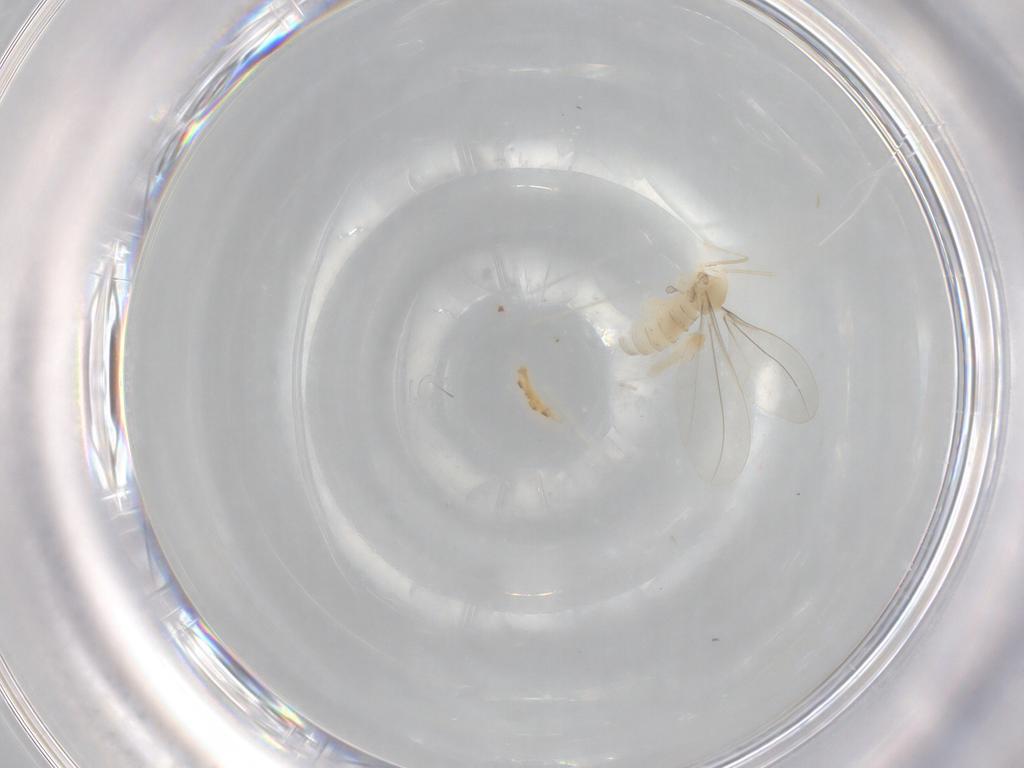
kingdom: Animalia
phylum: Arthropoda
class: Insecta
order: Diptera
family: Cecidomyiidae
